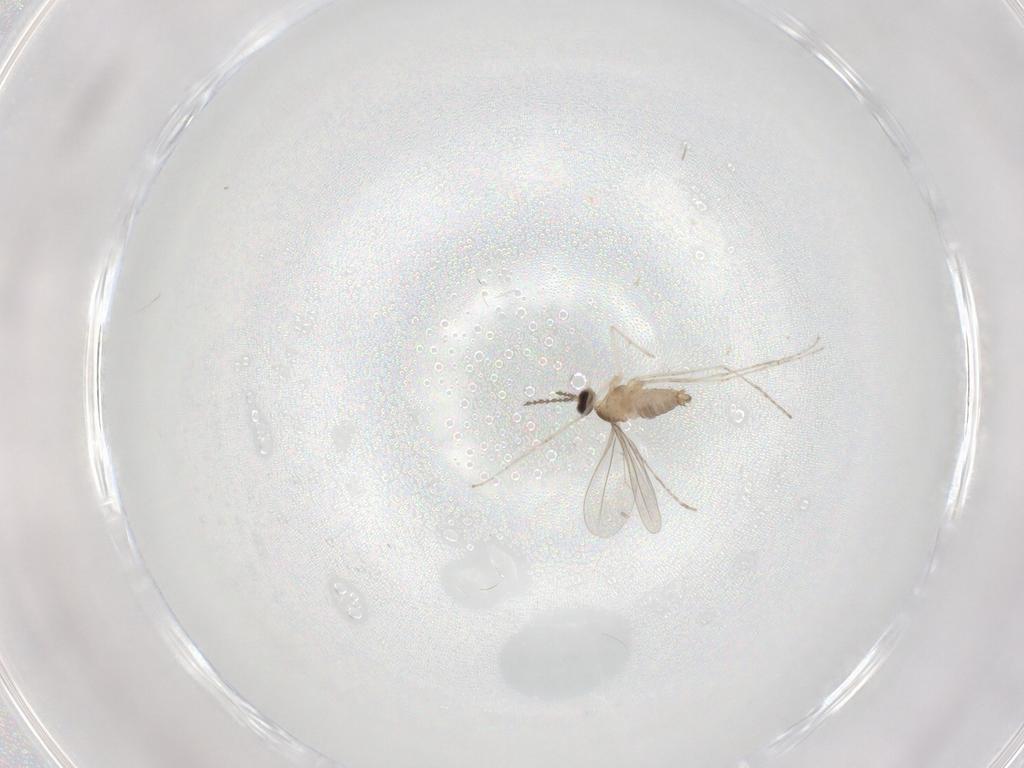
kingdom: Animalia
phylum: Arthropoda
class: Insecta
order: Diptera
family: Cecidomyiidae
